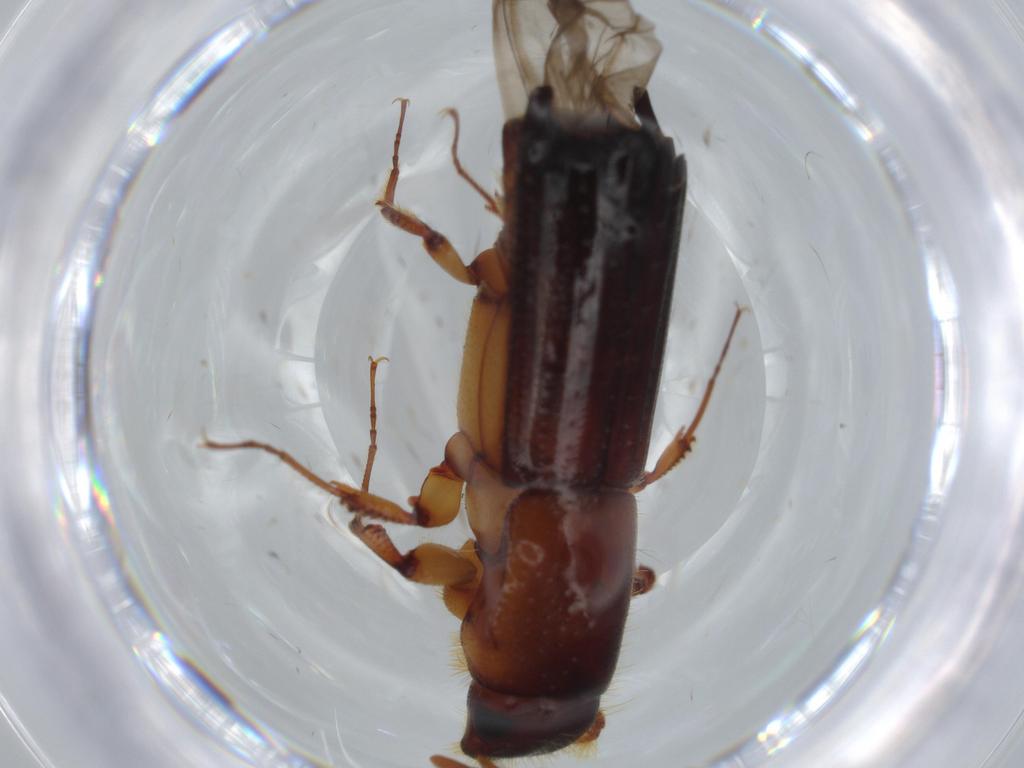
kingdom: Animalia
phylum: Arthropoda
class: Insecta
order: Coleoptera
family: Curculionidae
